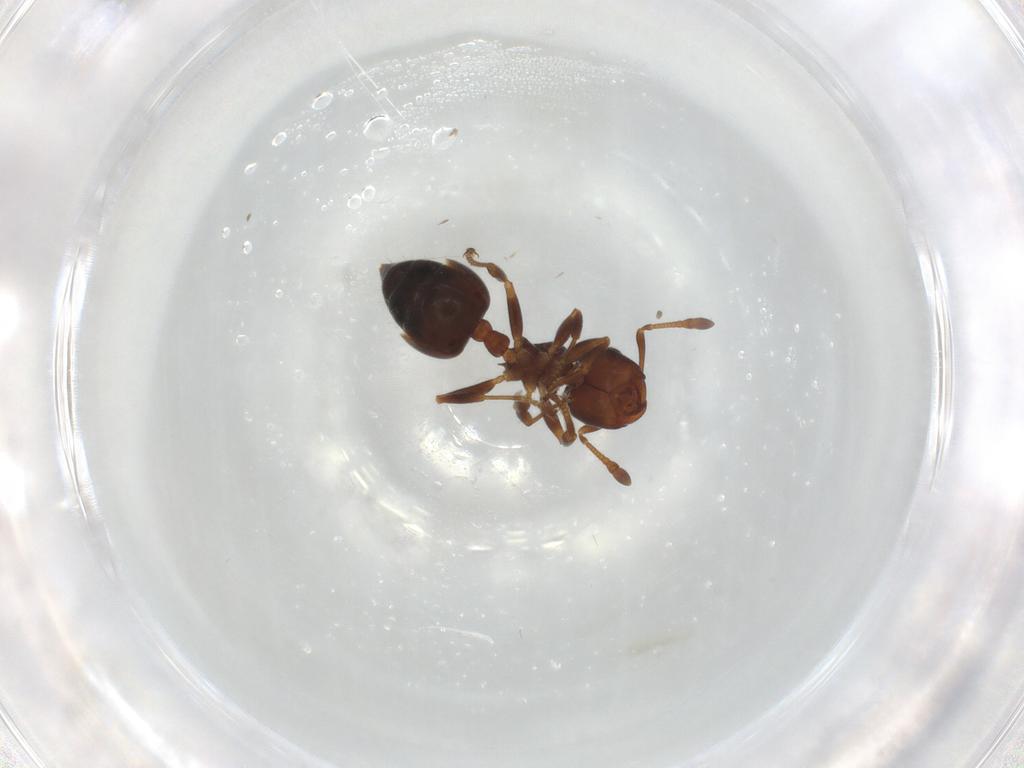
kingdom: Animalia
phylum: Arthropoda
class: Insecta
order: Hymenoptera
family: Formicidae
